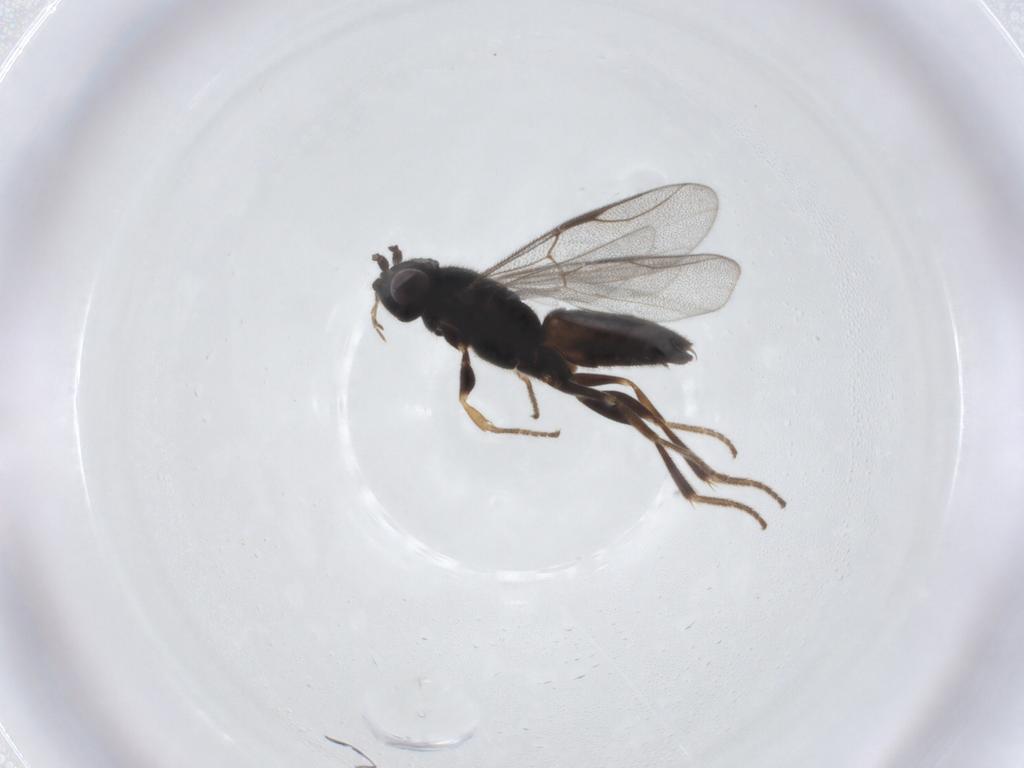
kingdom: Animalia
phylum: Arthropoda
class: Insecta
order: Hymenoptera
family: Dryinidae
